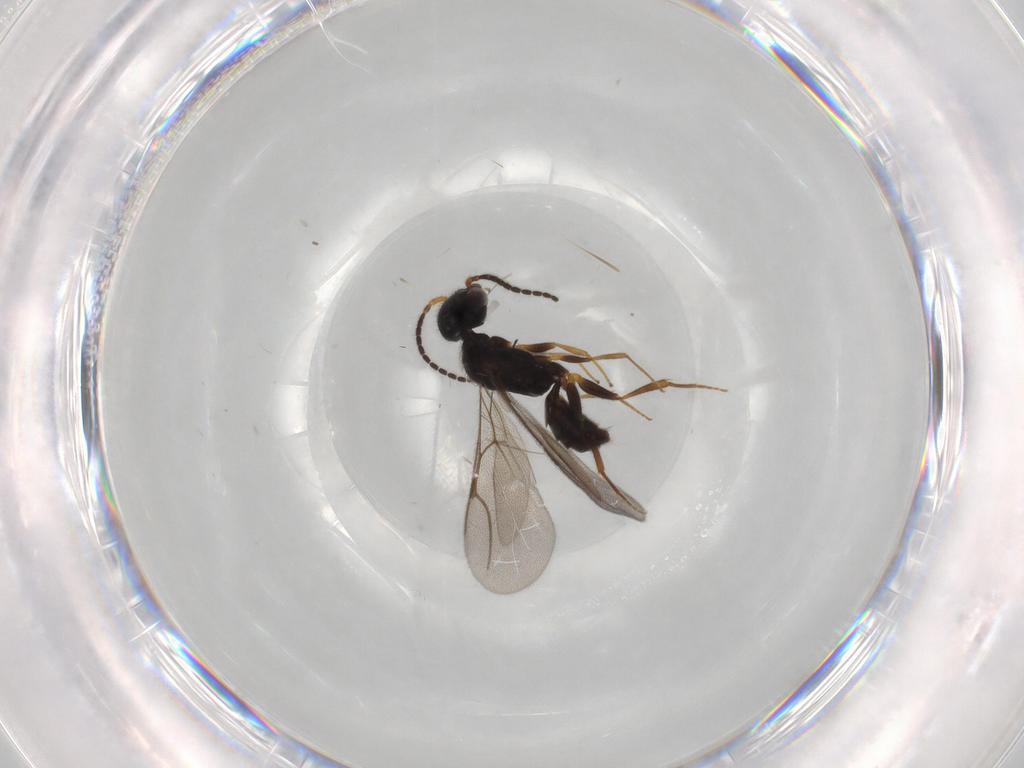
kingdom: Animalia
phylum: Arthropoda
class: Insecta
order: Hymenoptera
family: Bethylidae
